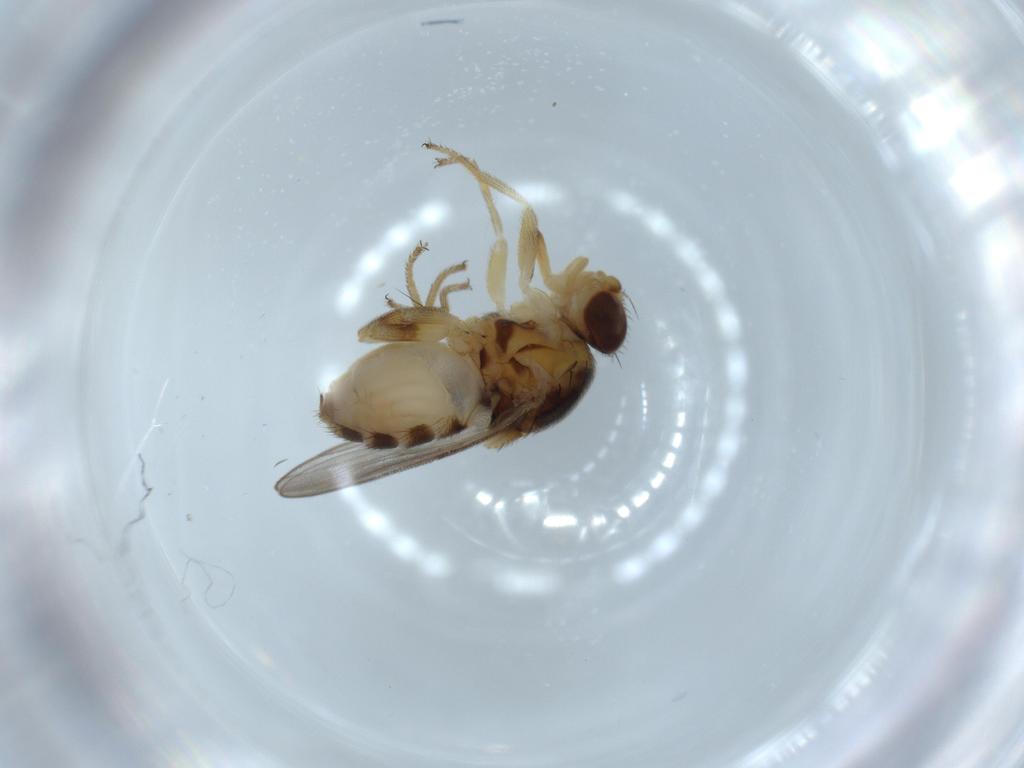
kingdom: Animalia
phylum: Arthropoda
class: Insecta
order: Diptera
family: Chloropidae
